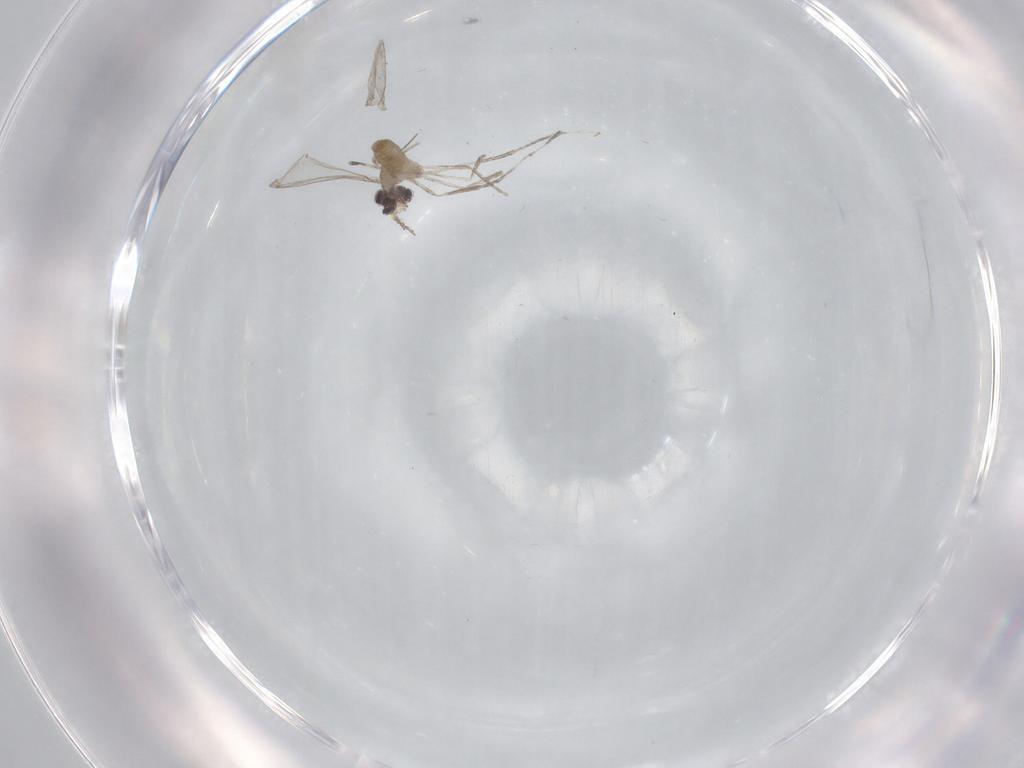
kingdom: Animalia
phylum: Arthropoda
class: Insecta
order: Diptera
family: Cecidomyiidae
